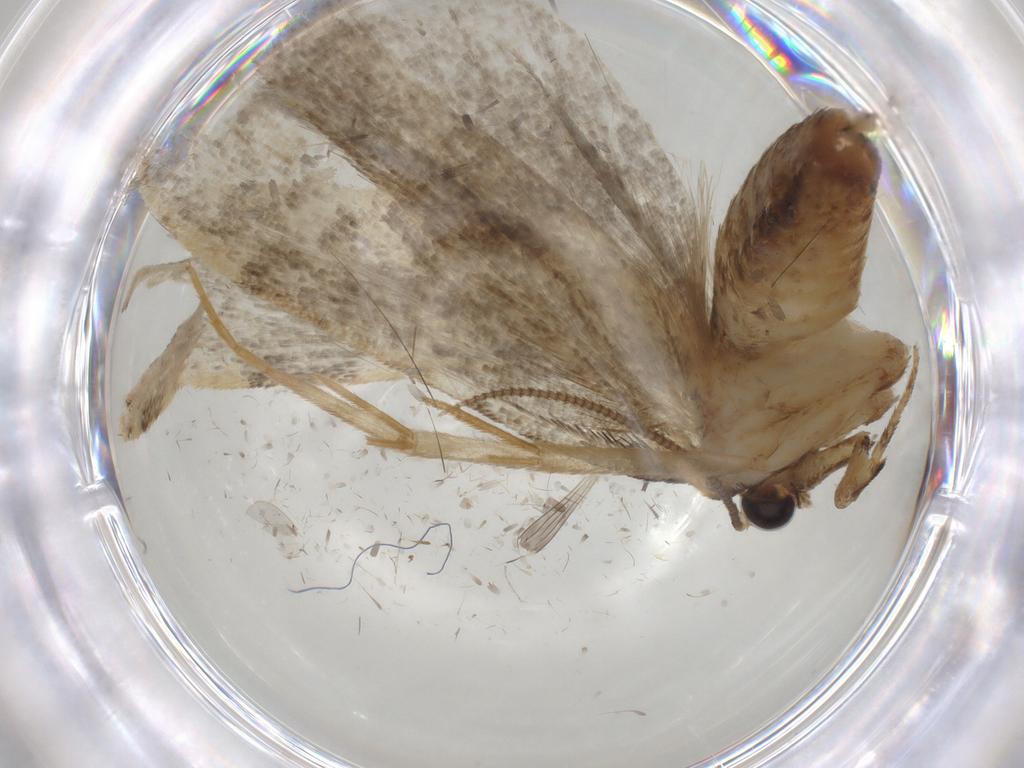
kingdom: Animalia
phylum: Arthropoda
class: Insecta
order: Lepidoptera
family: Tineidae
